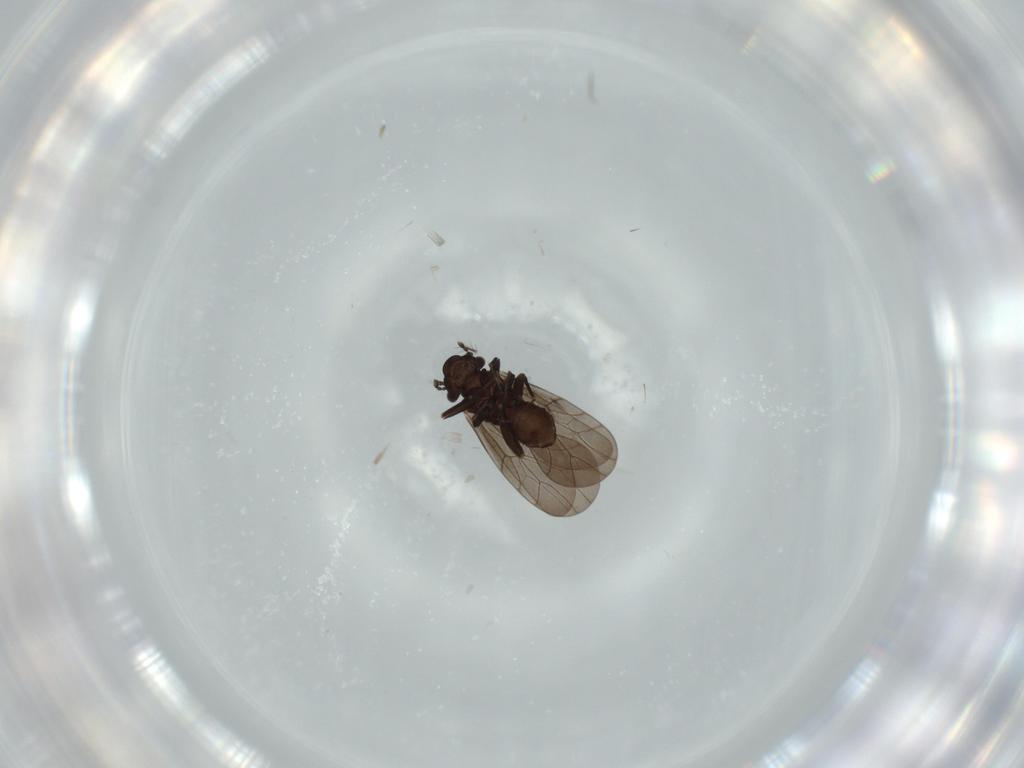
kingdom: Animalia
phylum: Arthropoda
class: Insecta
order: Psocodea
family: Lepidopsocidae
